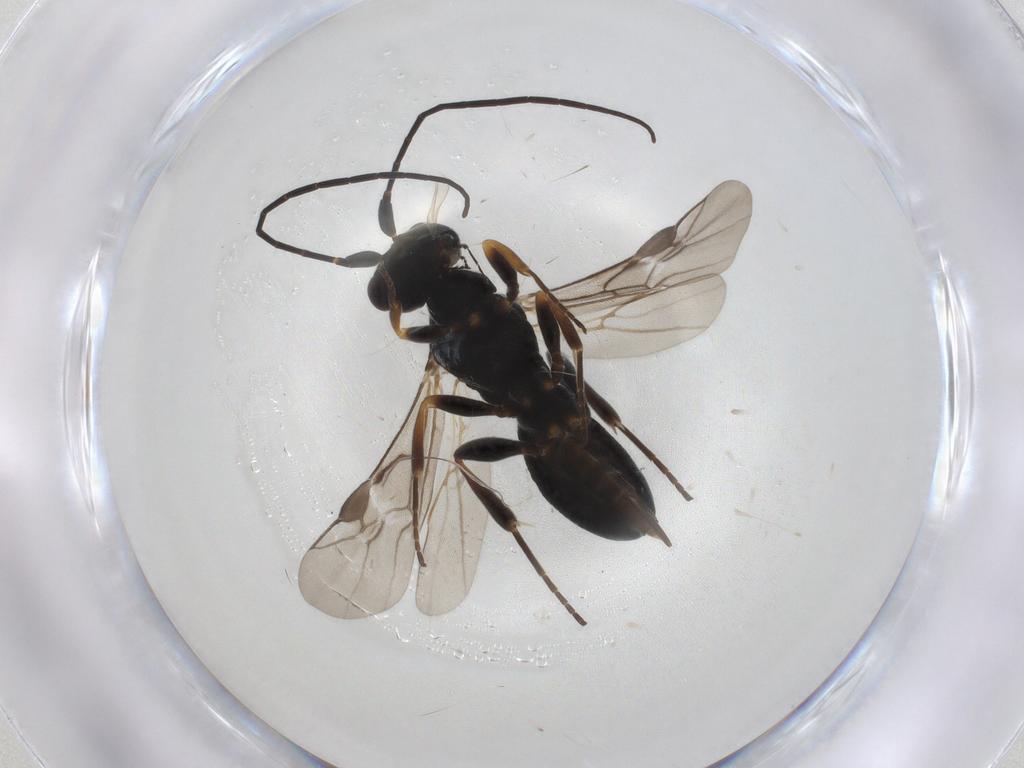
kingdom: Animalia
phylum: Arthropoda
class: Insecta
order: Hymenoptera
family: Braconidae
